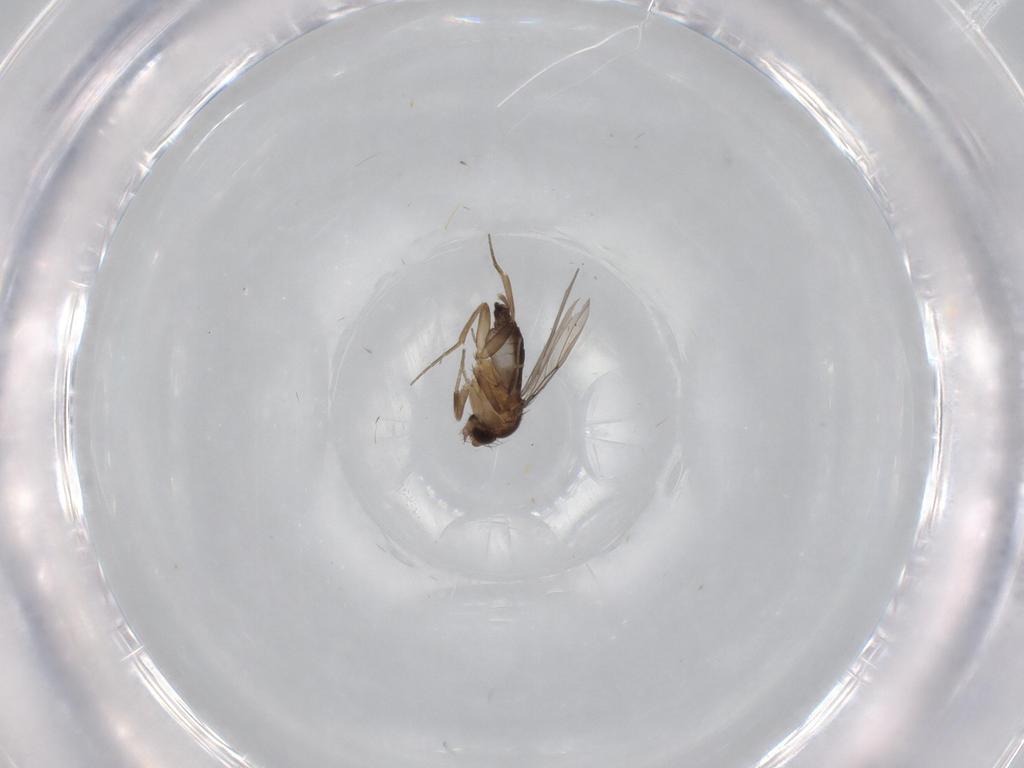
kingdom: Animalia
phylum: Arthropoda
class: Insecta
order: Diptera
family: Phoridae
